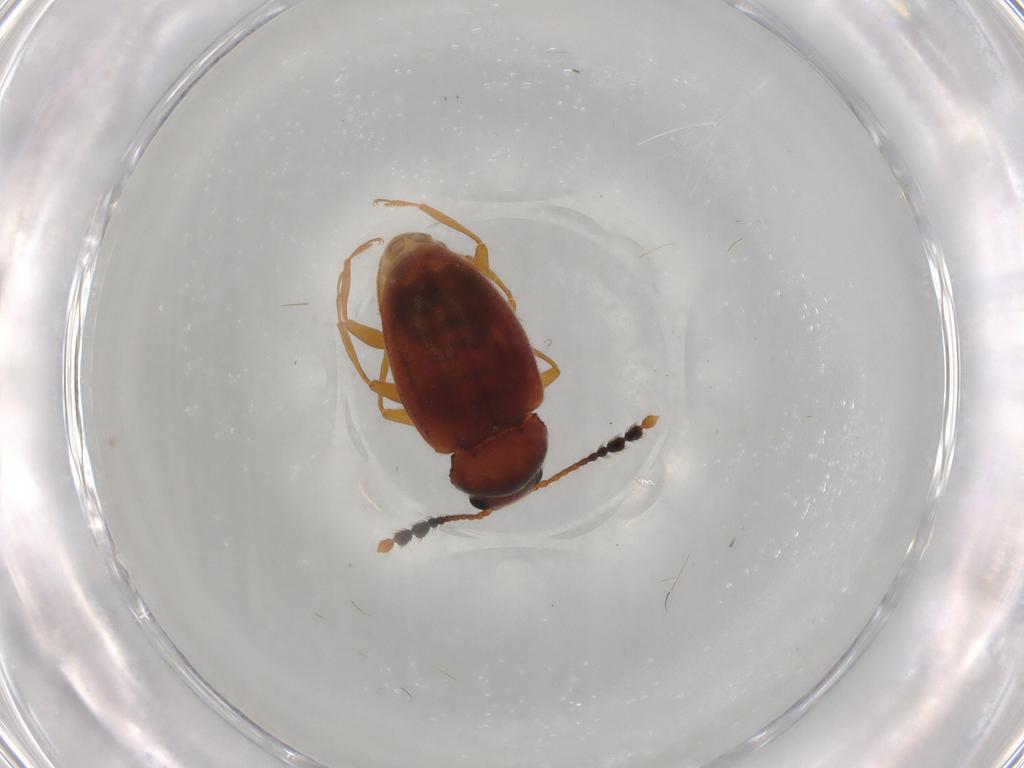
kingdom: Animalia
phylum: Arthropoda
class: Insecta
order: Coleoptera
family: Erotylidae
